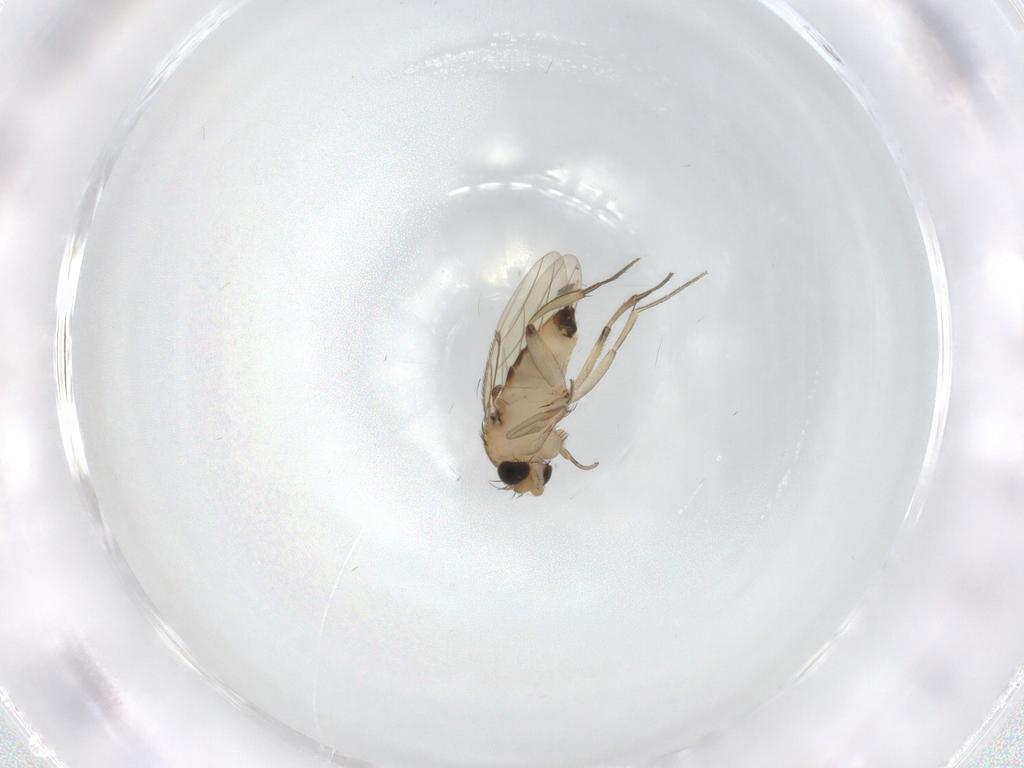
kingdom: Animalia
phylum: Arthropoda
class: Insecta
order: Diptera
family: Phoridae
